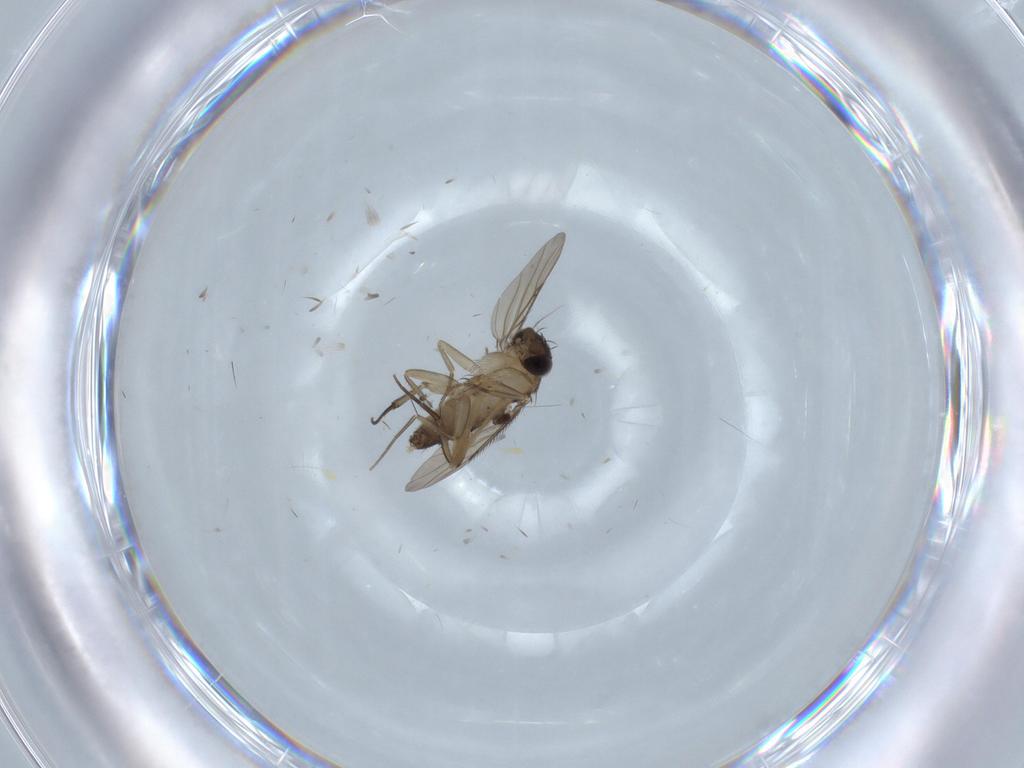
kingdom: Animalia
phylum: Arthropoda
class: Insecta
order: Diptera
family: Phoridae
